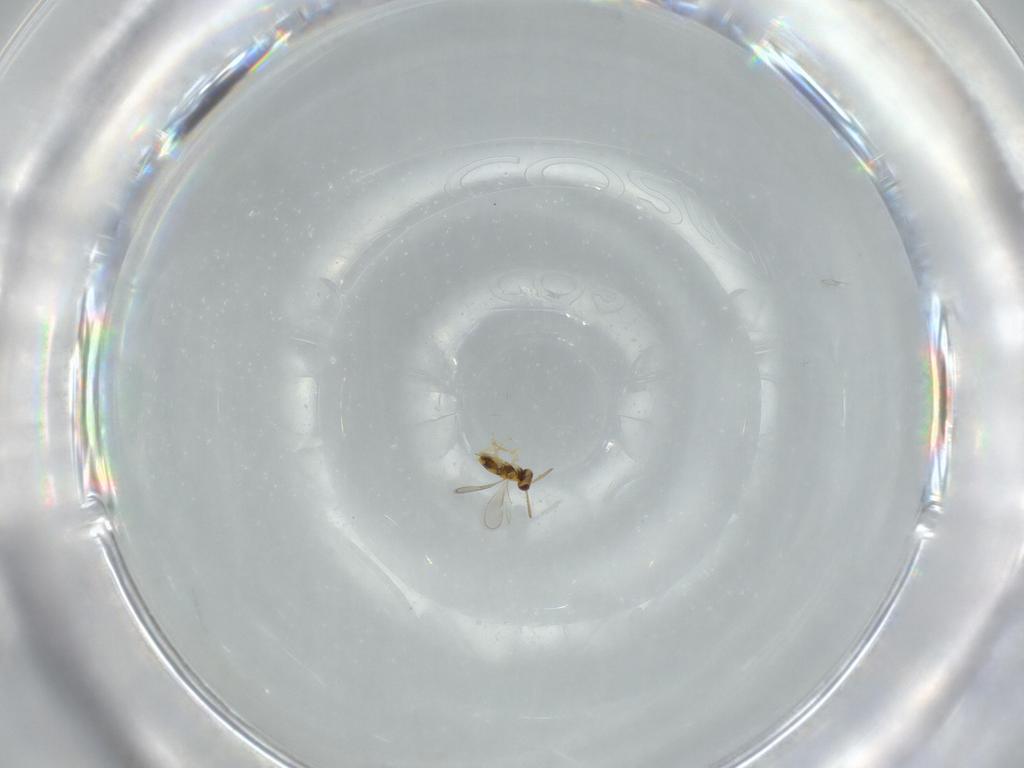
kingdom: Animalia
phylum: Arthropoda
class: Insecta
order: Hymenoptera
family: Aphelinidae
